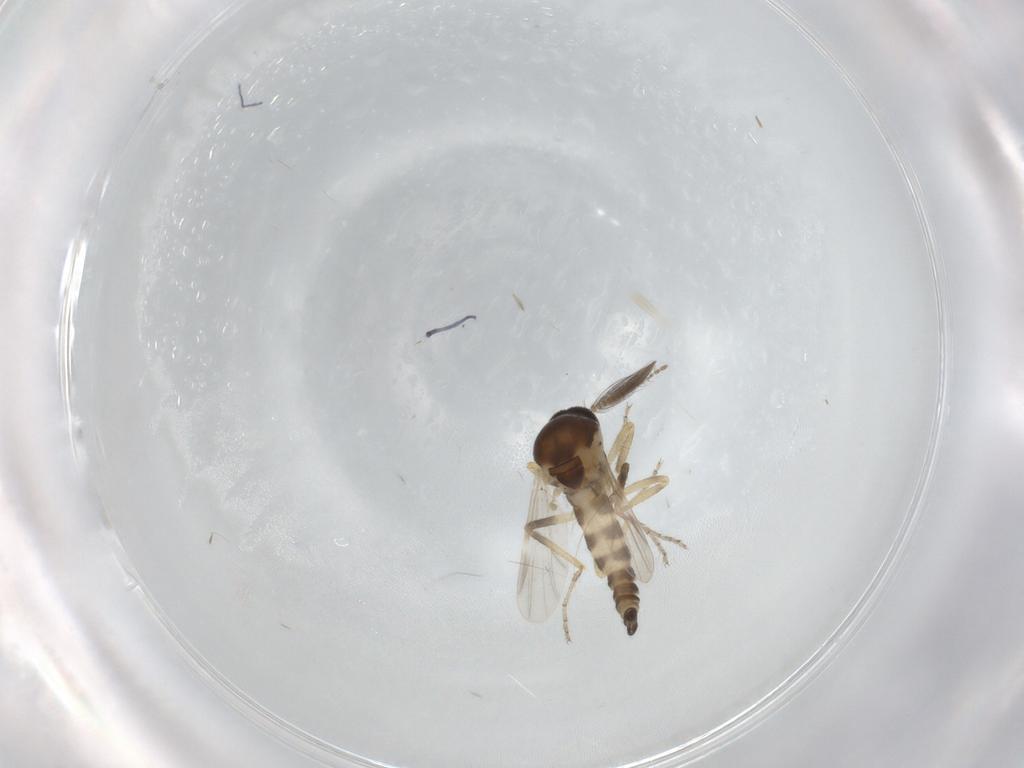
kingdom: Animalia
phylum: Arthropoda
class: Insecta
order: Diptera
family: Ceratopogonidae
